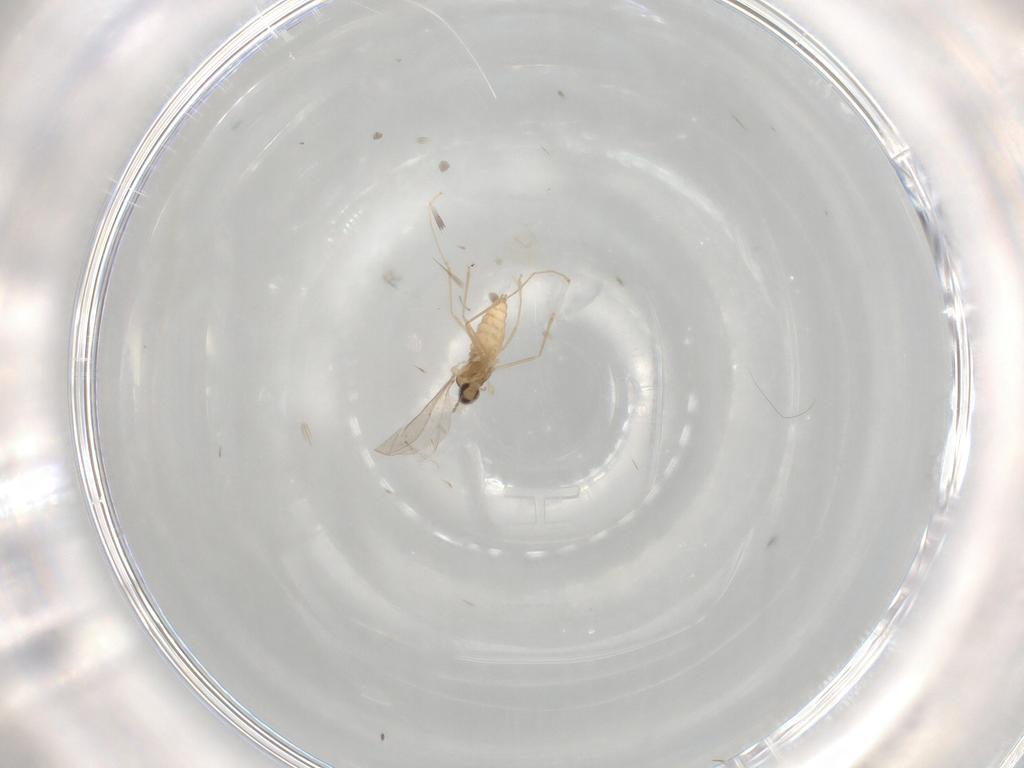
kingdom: Animalia
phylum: Arthropoda
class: Insecta
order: Diptera
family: Cecidomyiidae
